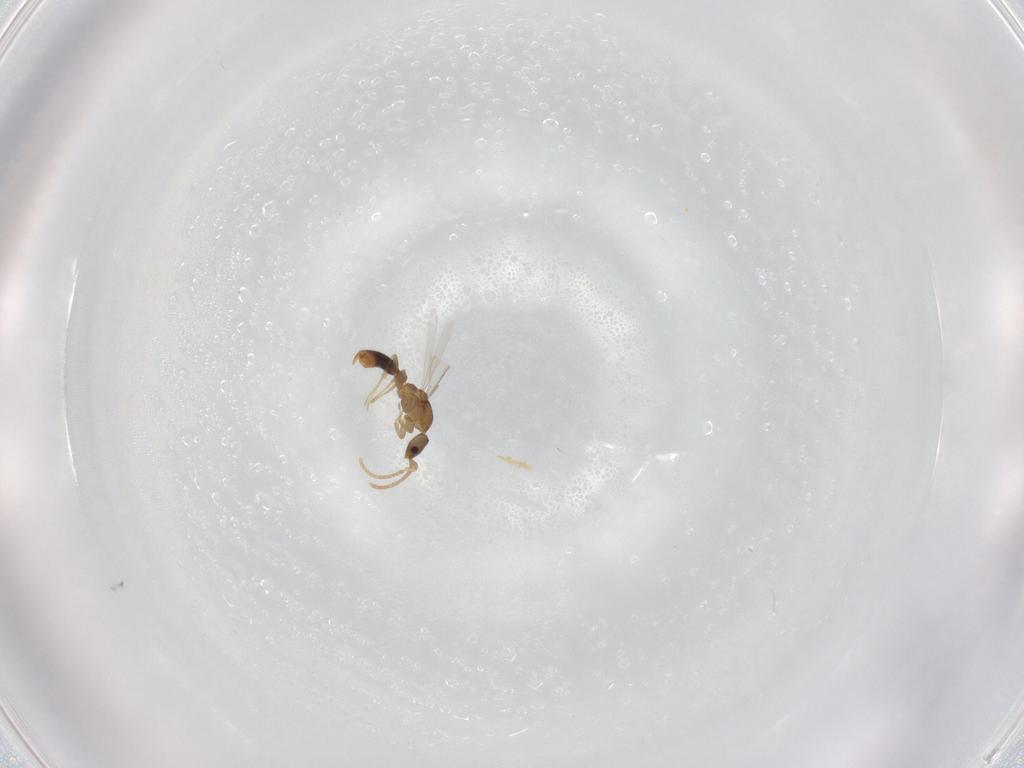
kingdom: Animalia
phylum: Arthropoda
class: Insecta
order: Hymenoptera
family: Formicidae
